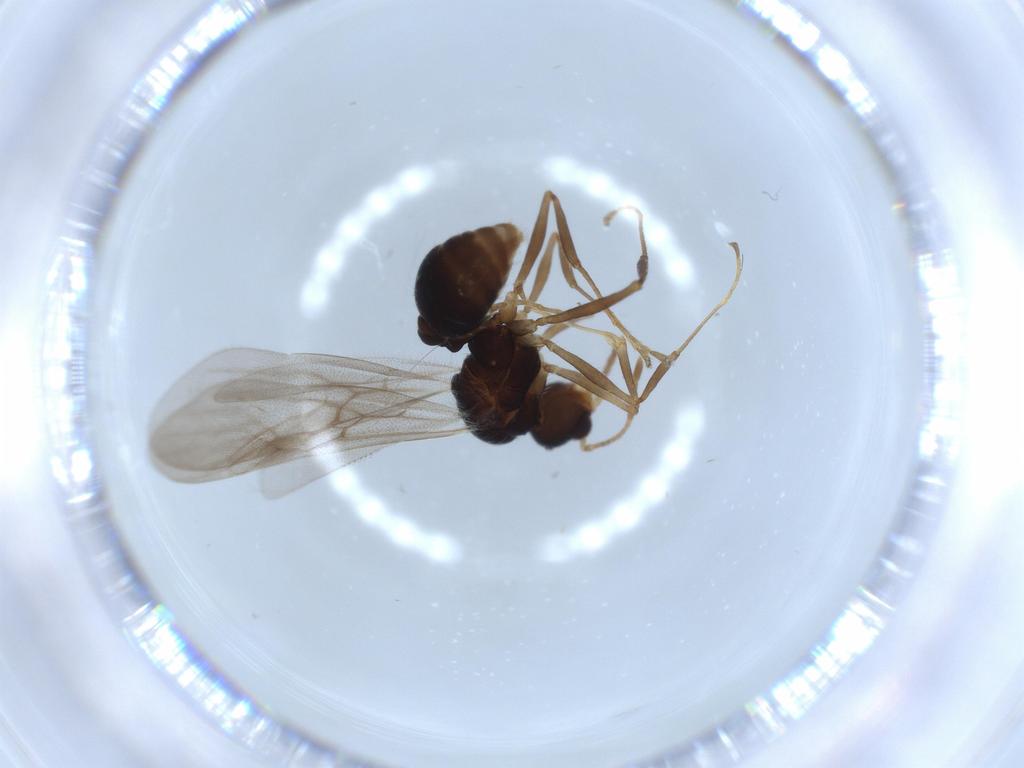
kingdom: Animalia
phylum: Arthropoda
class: Insecta
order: Hymenoptera
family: Formicidae
